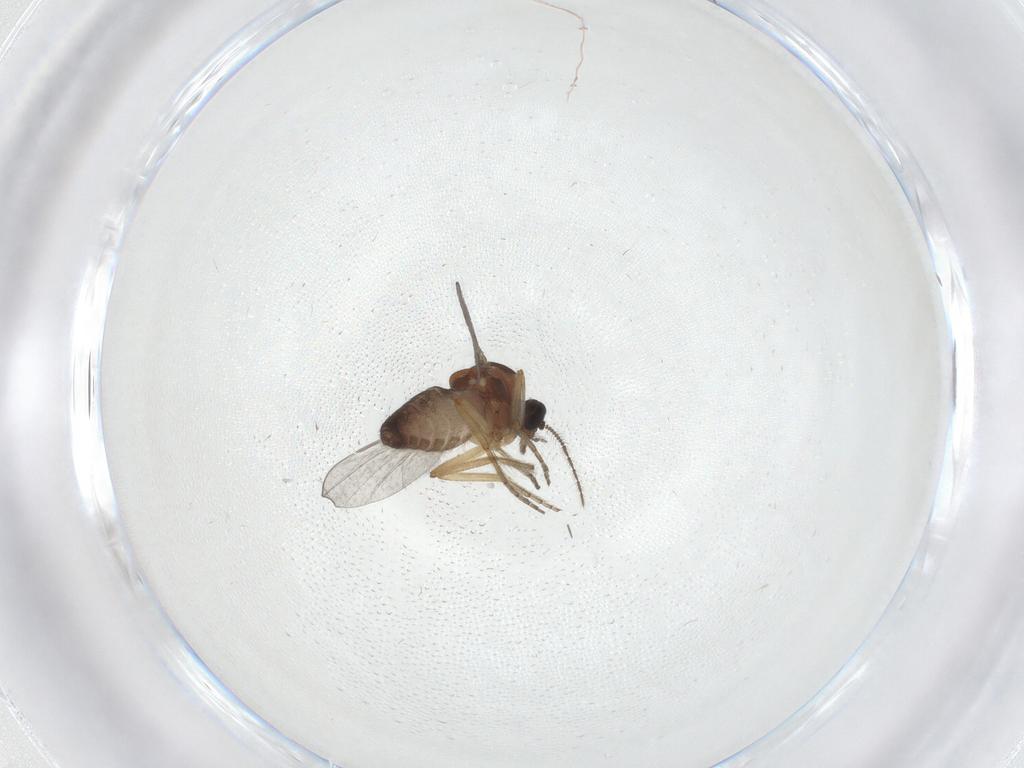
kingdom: Animalia
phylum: Arthropoda
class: Insecta
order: Diptera
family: Ceratopogonidae
